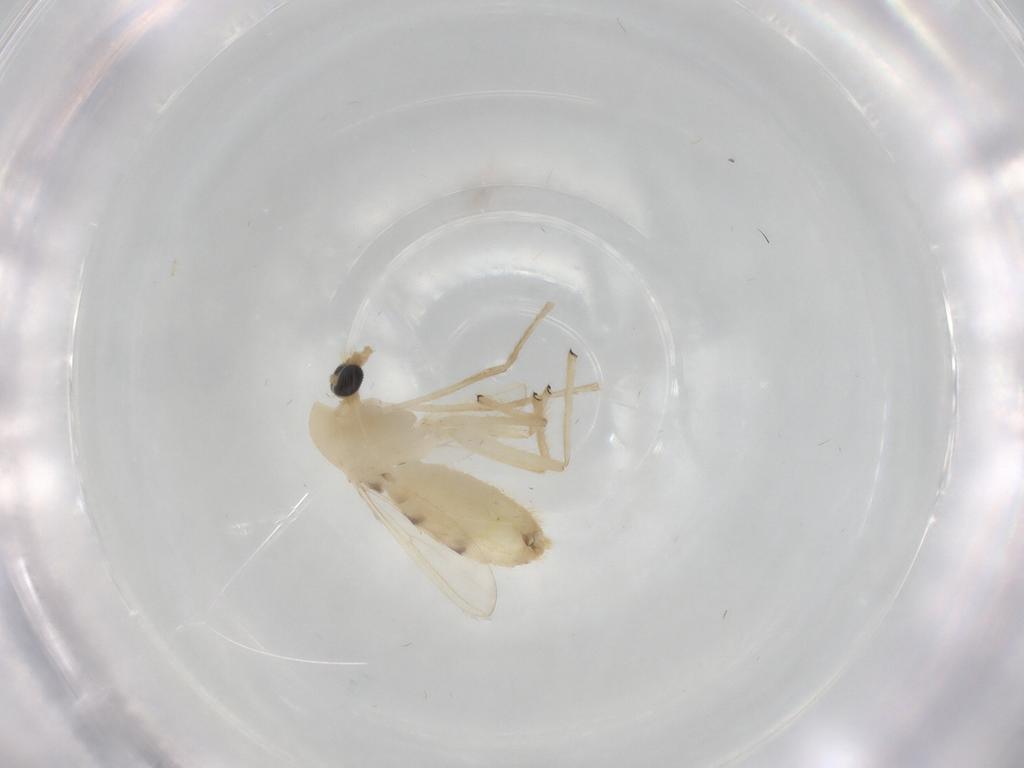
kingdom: Animalia
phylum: Arthropoda
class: Insecta
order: Diptera
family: Chironomidae
